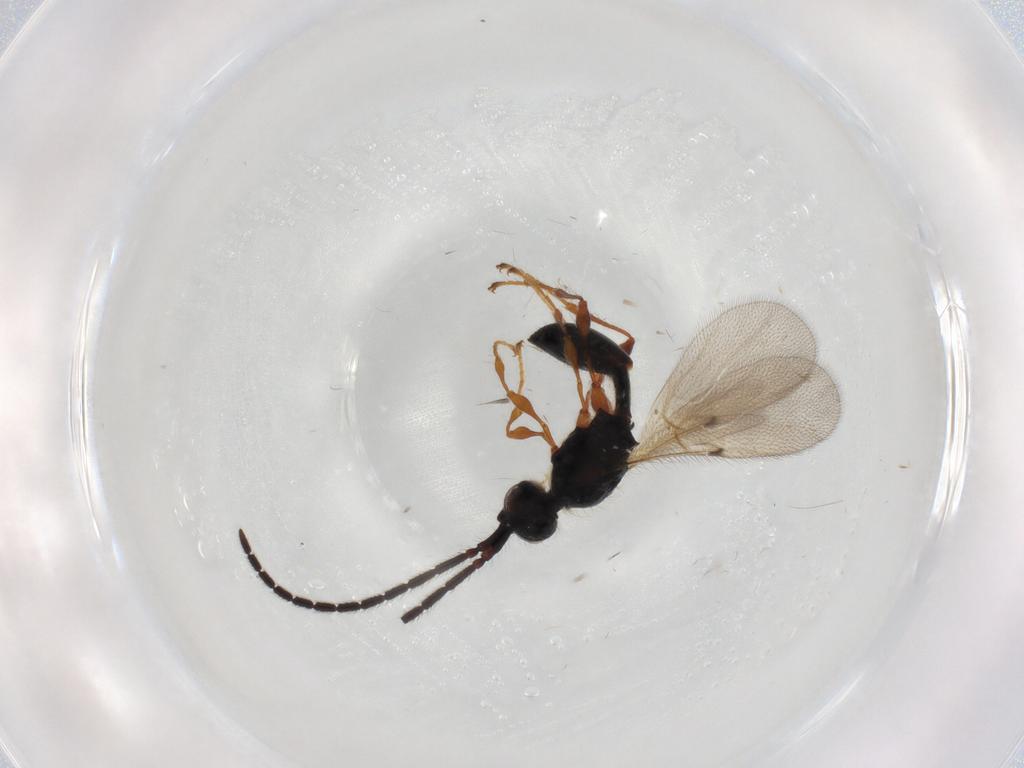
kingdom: Animalia
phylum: Arthropoda
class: Insecta
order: Hymenoptera
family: Diapriidae
